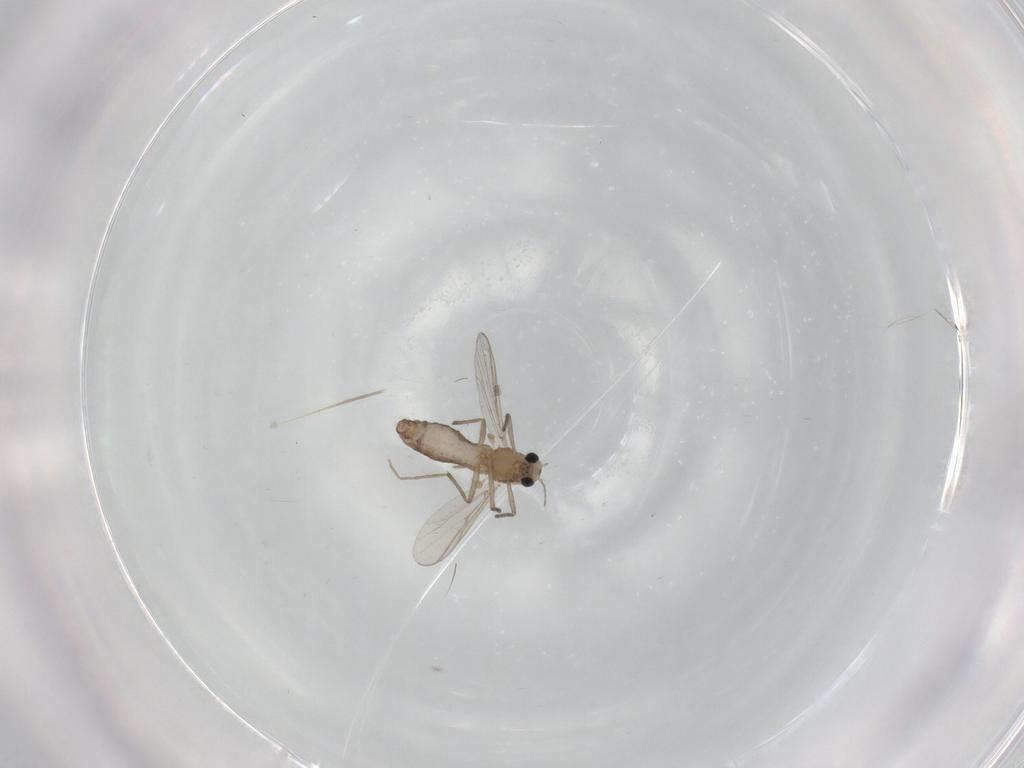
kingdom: Animalia
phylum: Arthropoda
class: Insecta
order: Diptera
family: Chironomidae
